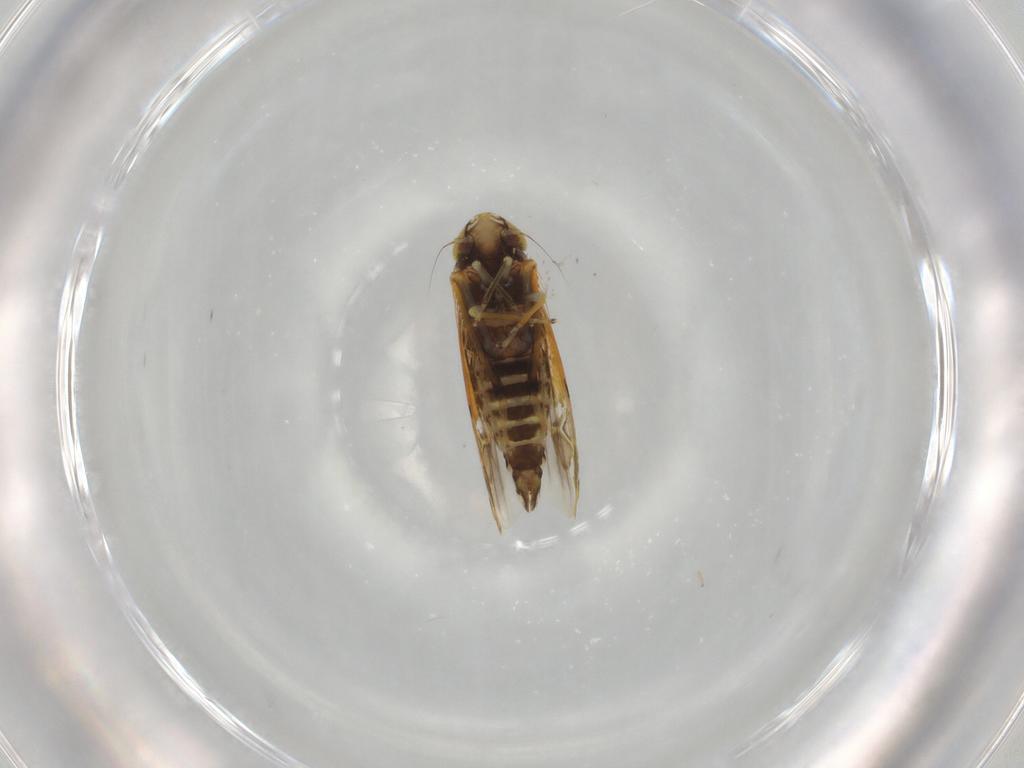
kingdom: Animalia
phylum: Arthropoda
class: Insecta
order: Hemiptera
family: Cicadellidae
